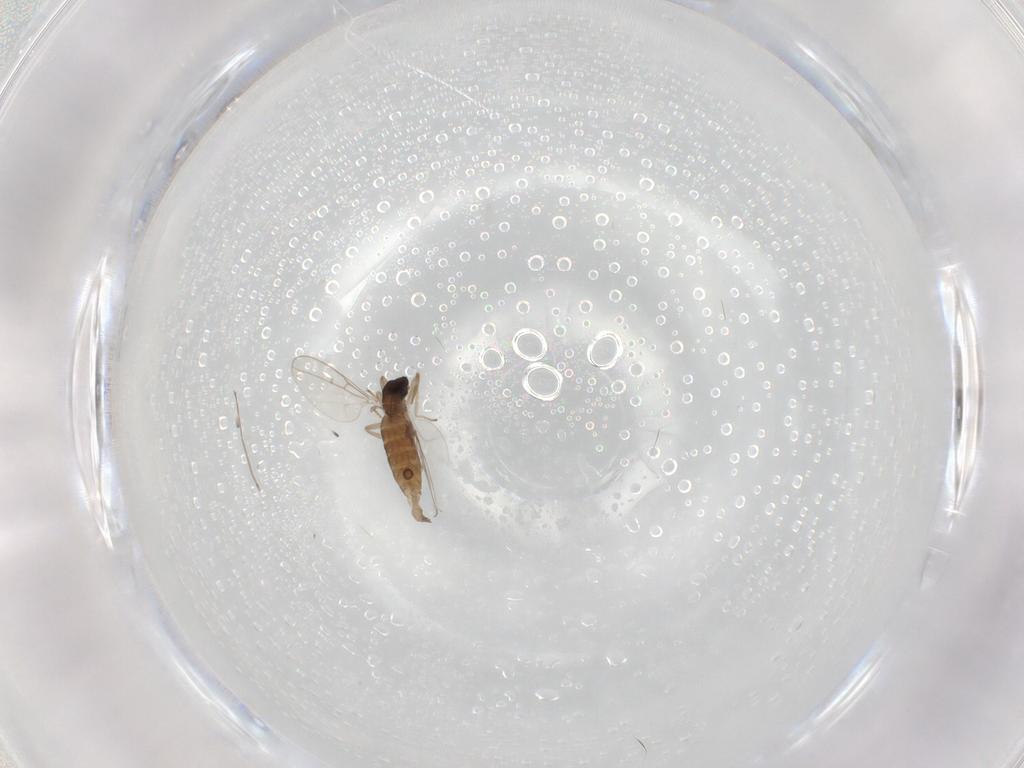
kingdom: Animalia
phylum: Arthropoda
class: Insecta
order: Diptera
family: Cecidomyiidae
